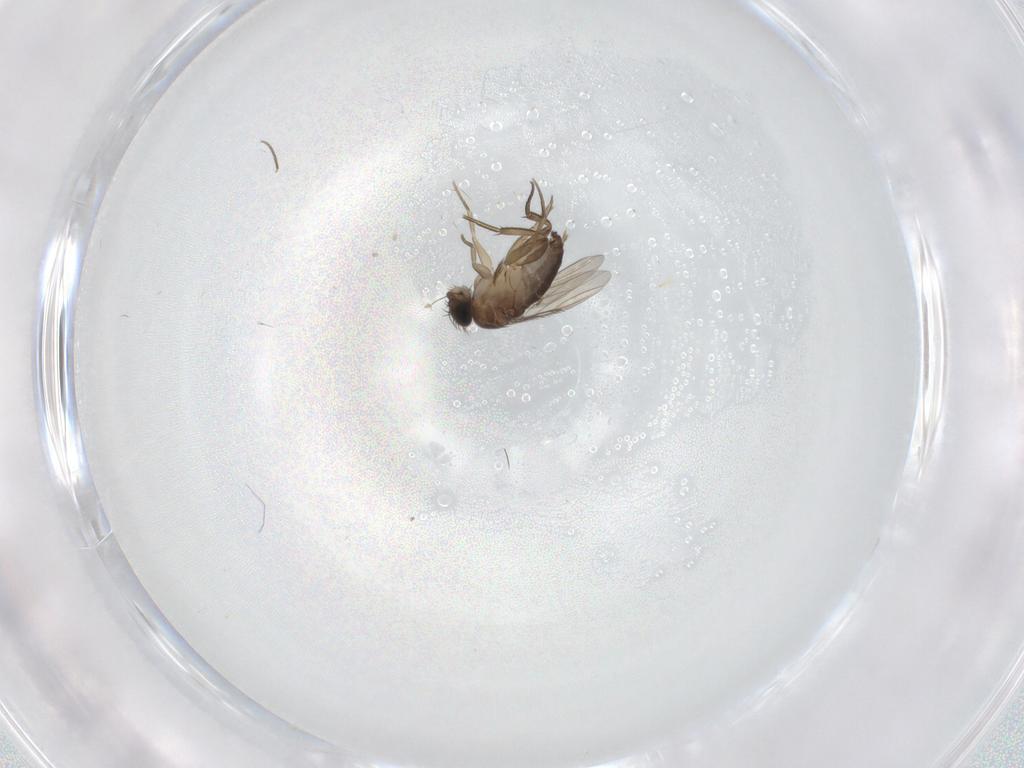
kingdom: Animalia
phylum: Arthropoda
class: Insecta
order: Diptera
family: Phoridae
